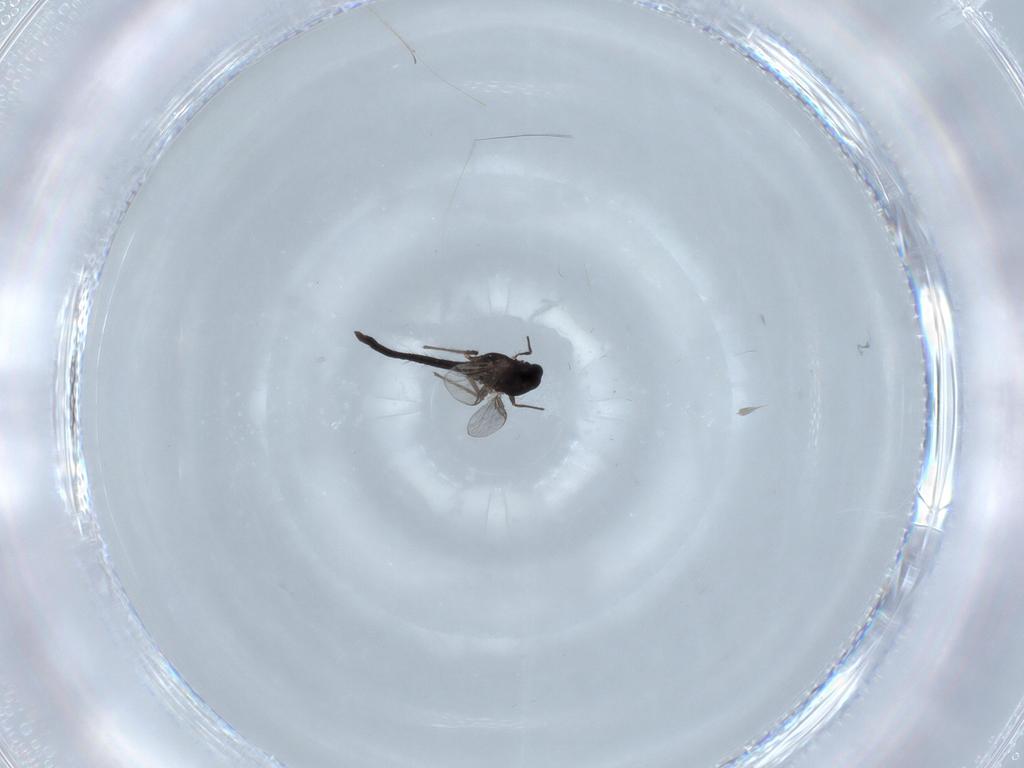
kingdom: Animalia
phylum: Arthropoda
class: Insecta
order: Diptera
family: Chironomidae
